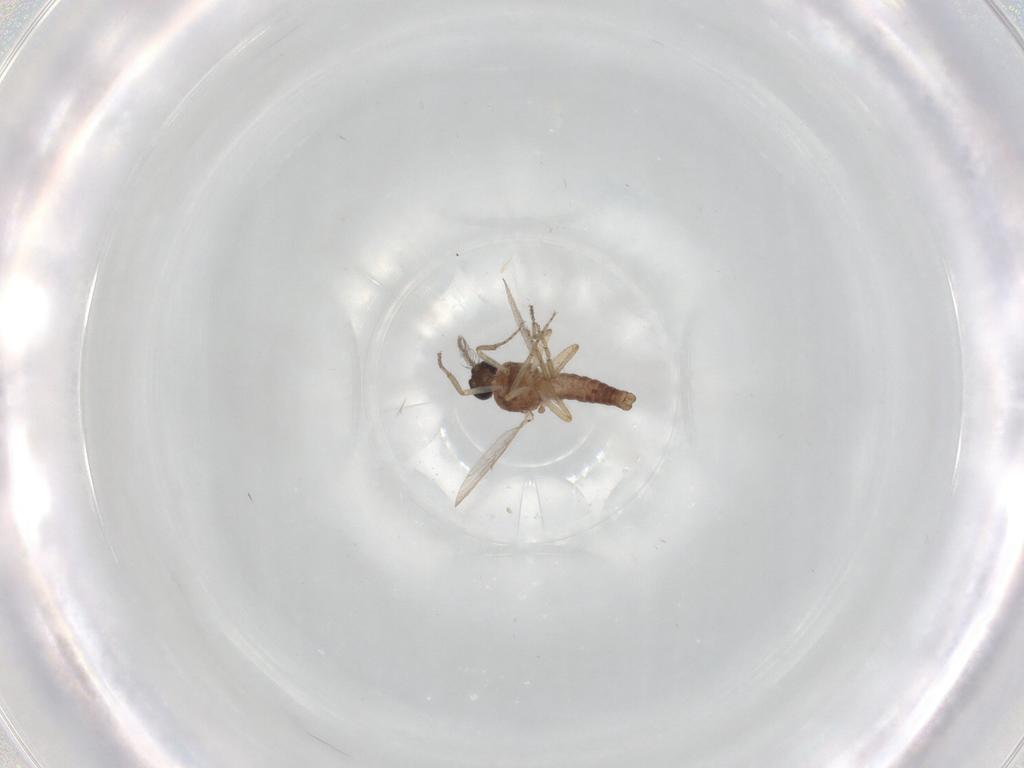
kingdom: Animalia
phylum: Arthropoda
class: Insecta
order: Diptera
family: Ceratopogonidae
